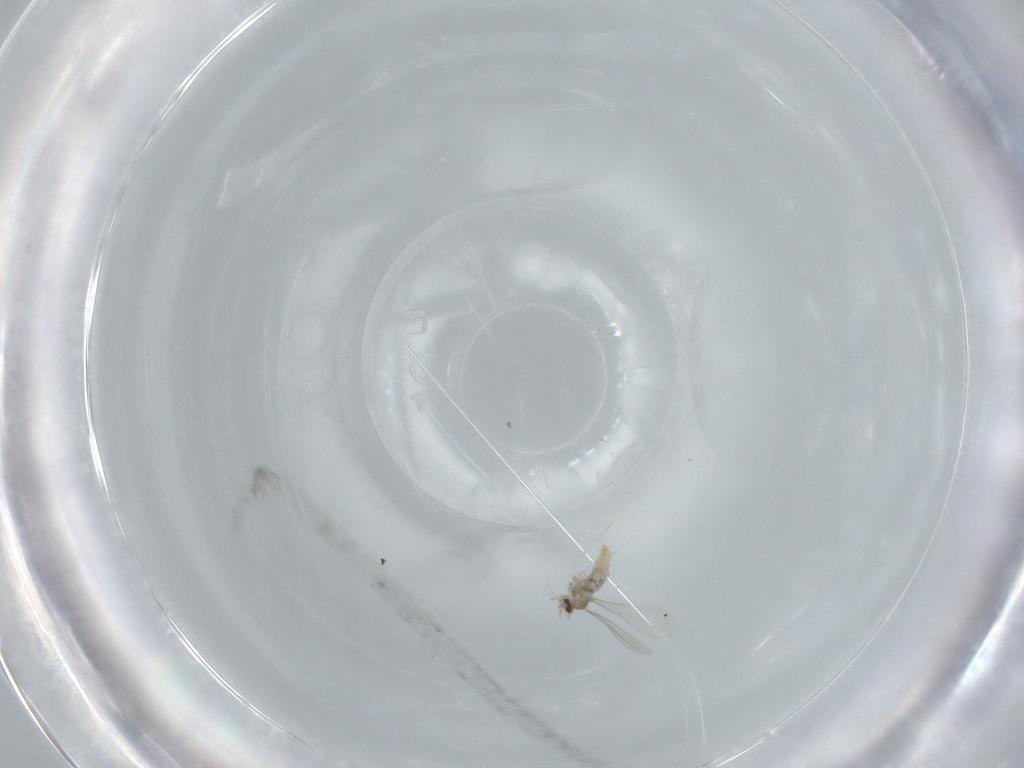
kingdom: Animalia
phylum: Arthropoda
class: Insecta
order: Diptera
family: Cecidomyiidae
